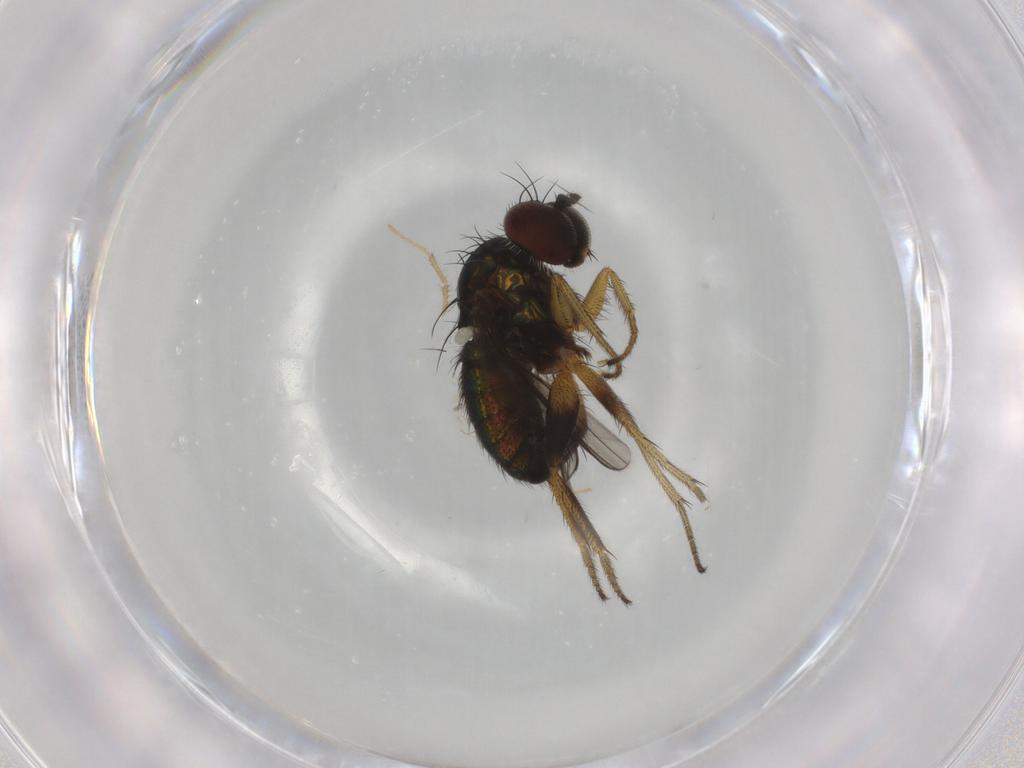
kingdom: Animalia
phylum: Arthropoda
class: Insecta
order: Diptera
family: Dolichopodidae
